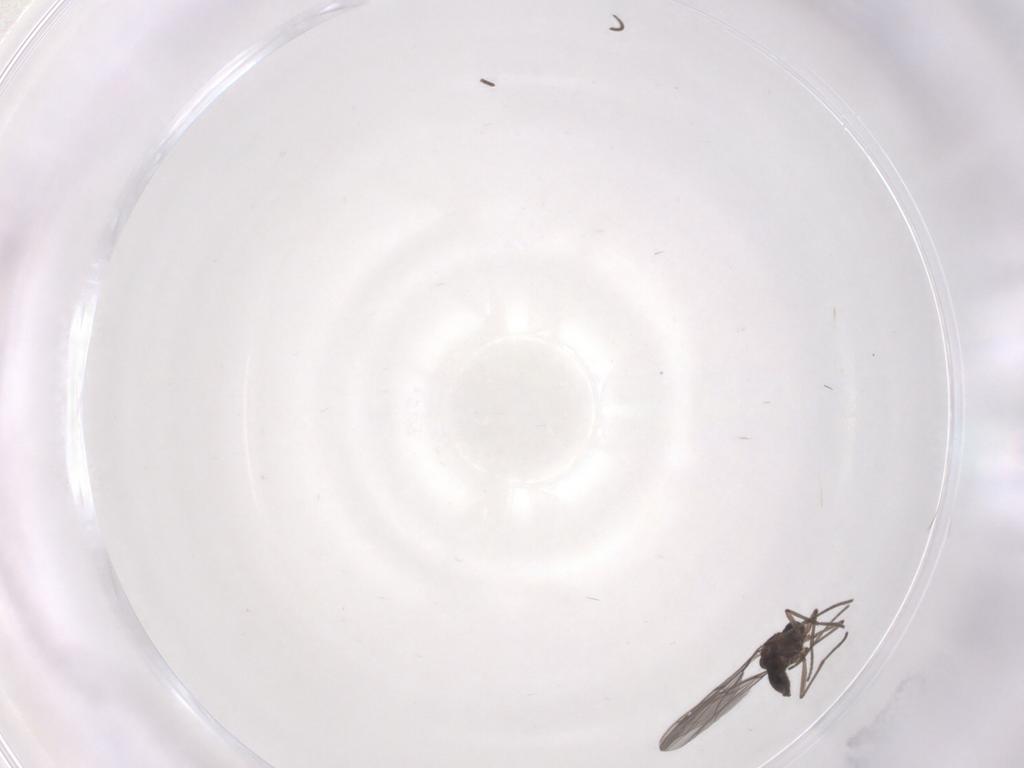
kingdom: Animalia
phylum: Arthropoda
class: Insecta
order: Diptera
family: Sciaridae
